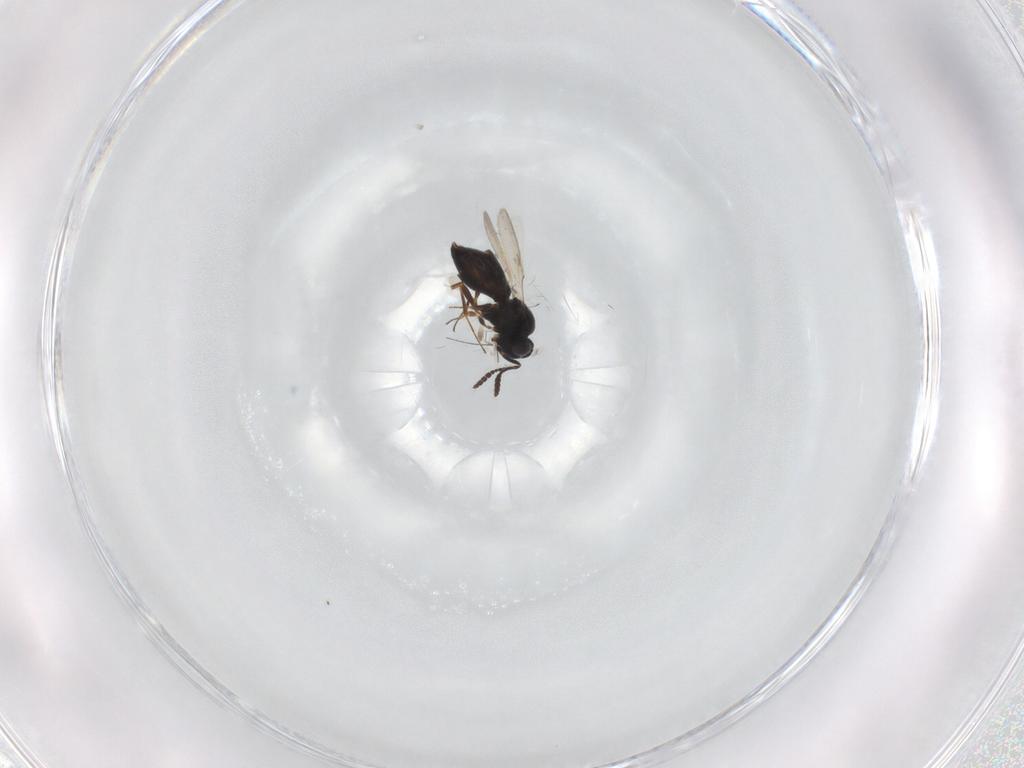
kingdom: Animalia
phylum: Arthropoda
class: Insecta
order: Hymenoptera
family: Scelionidae
